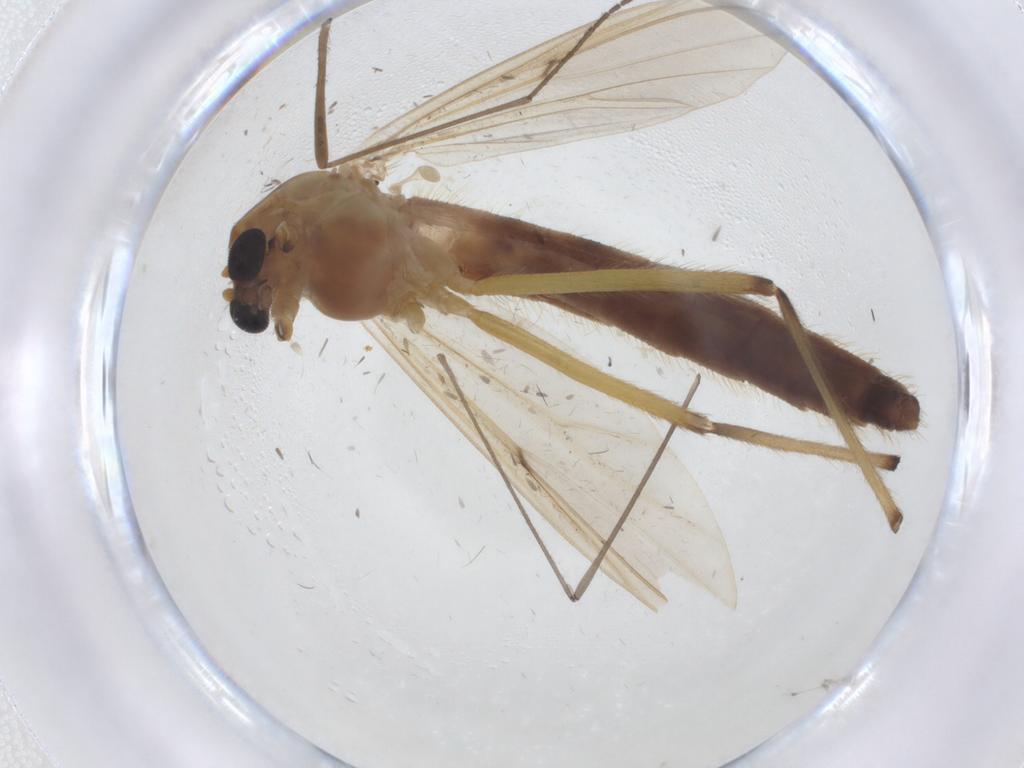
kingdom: Animalia
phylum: Arthropoda
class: Insecta
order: Diptera
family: Chironomidae
